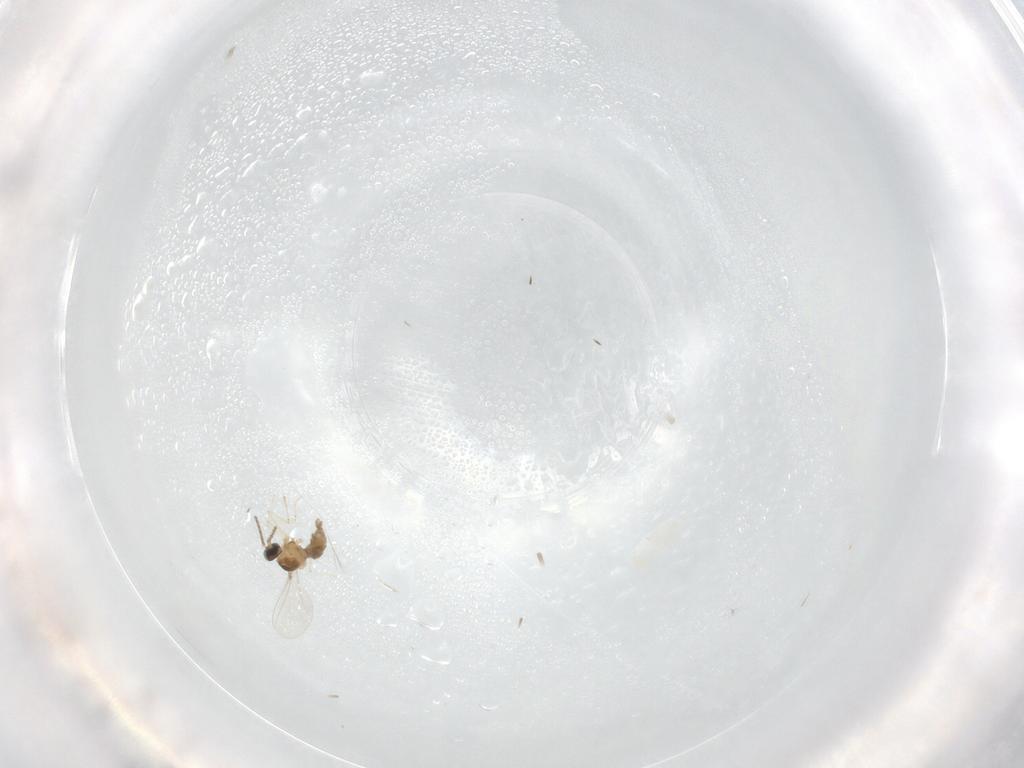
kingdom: Animalia
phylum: Arthropoda
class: Insecta
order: Diptera
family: Cecidomyiidae
